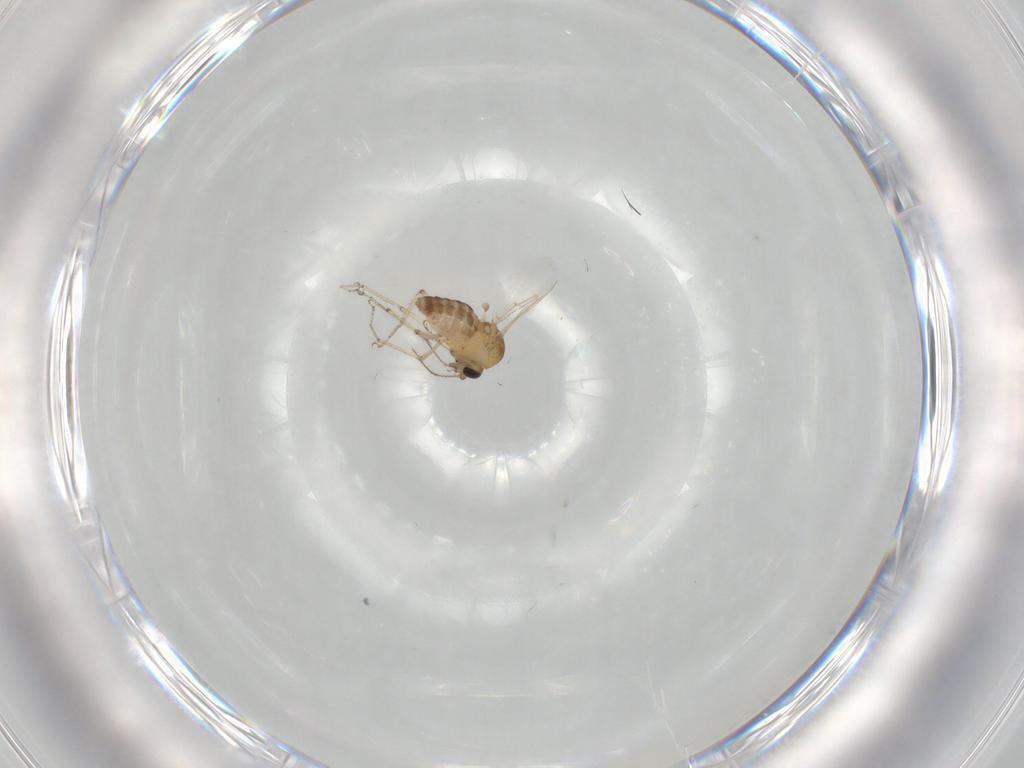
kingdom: Animalia
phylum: Arthropoda
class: Insecta
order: Diptera
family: Ceratopogonidae
